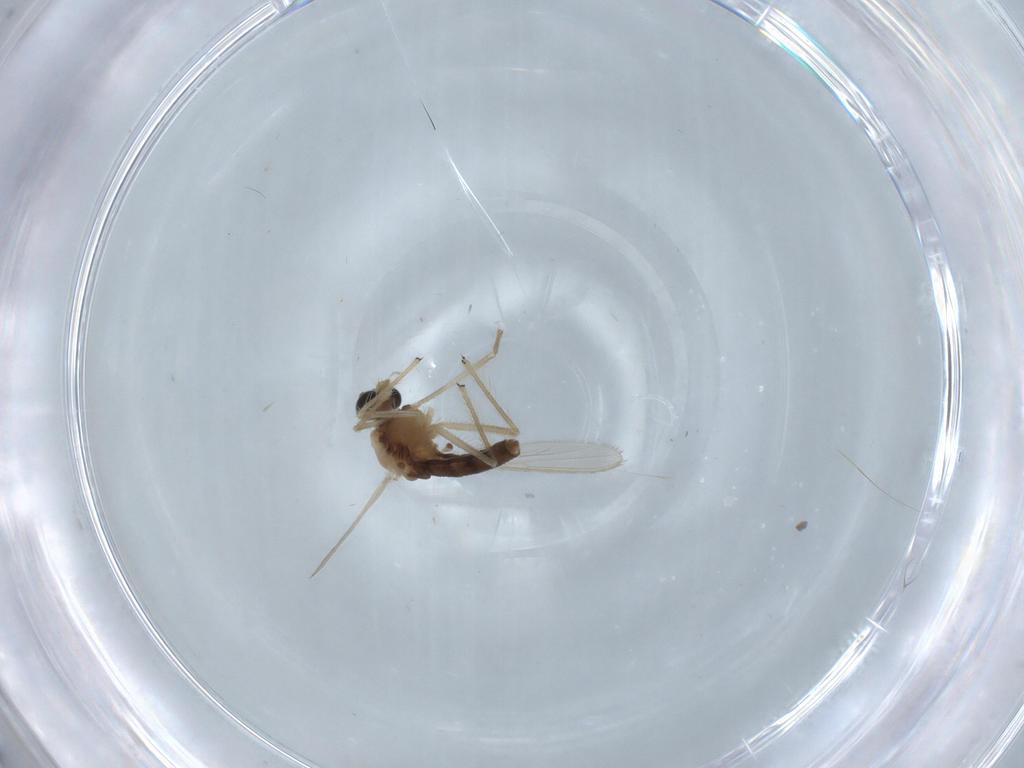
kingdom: Animalia
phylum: Arthropoda
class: Insecta
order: Diptera
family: Chironomidae
